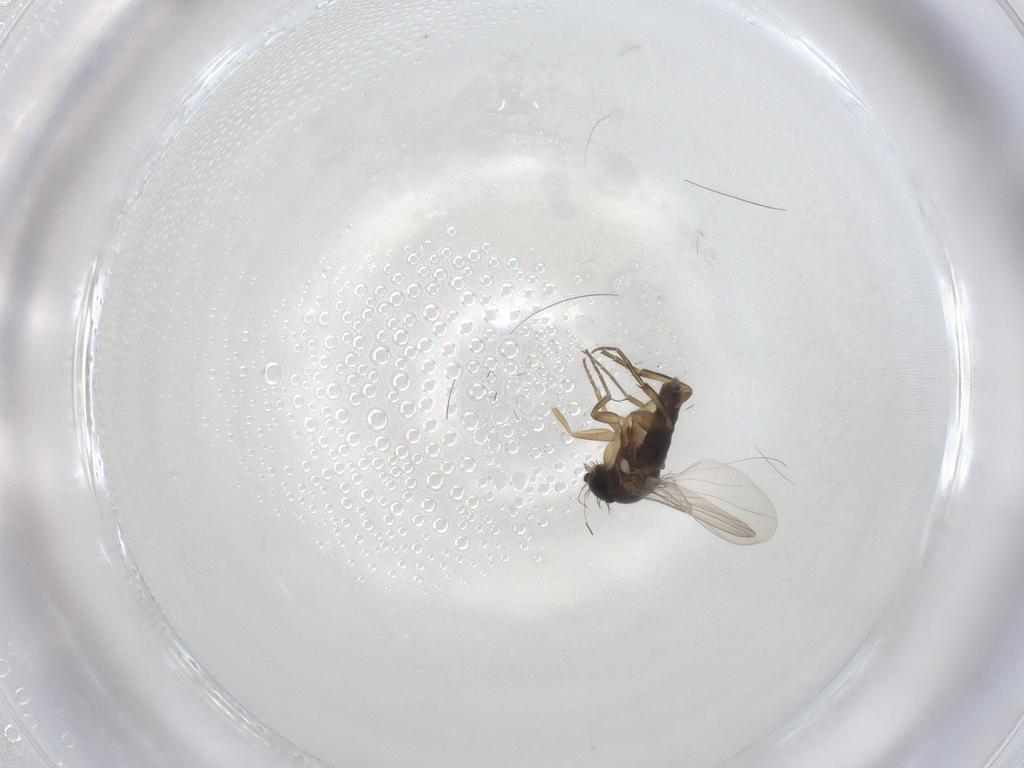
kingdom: Animalia
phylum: Arthropoda
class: Insecta
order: Diptera
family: Phoridae
